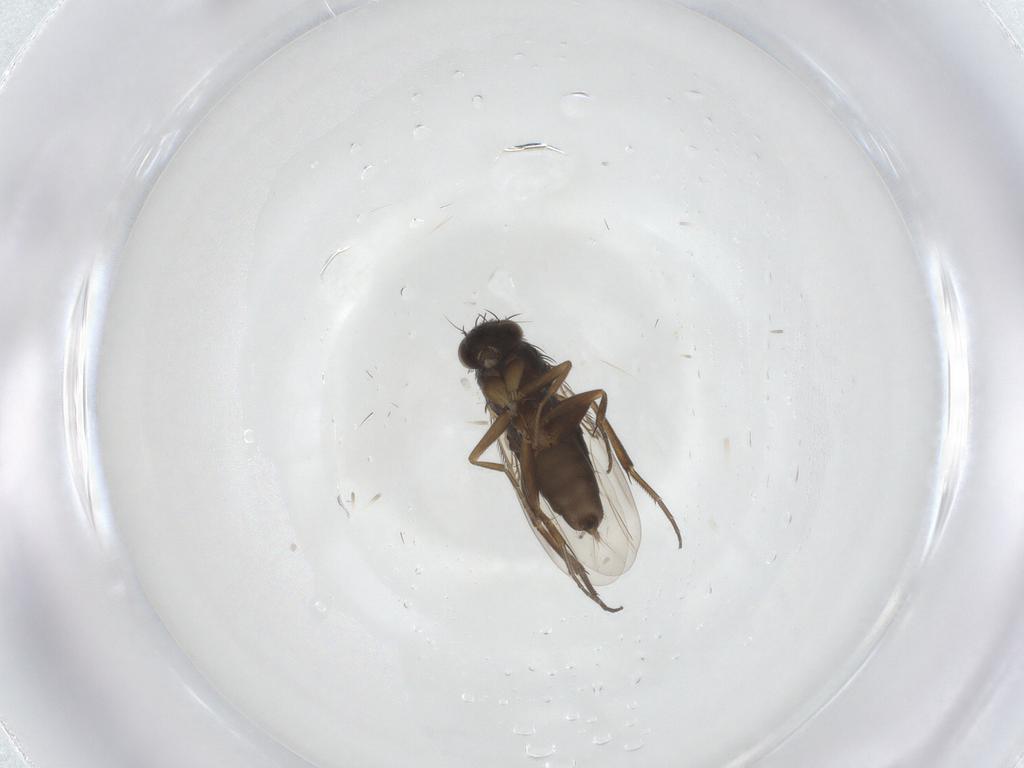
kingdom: Animalia
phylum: Arthropoda
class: Insecta
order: Diptera
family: Phoridae
